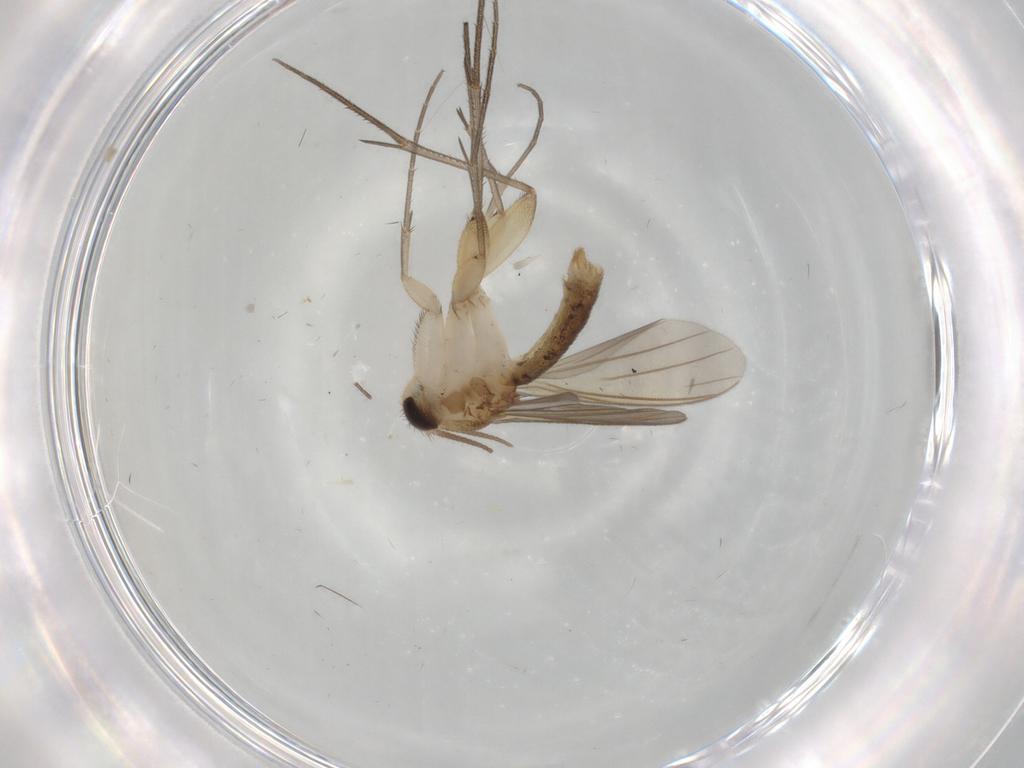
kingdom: Animalia
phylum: Arthropoda
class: Insecta
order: Diptera
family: Mycetophilidae
